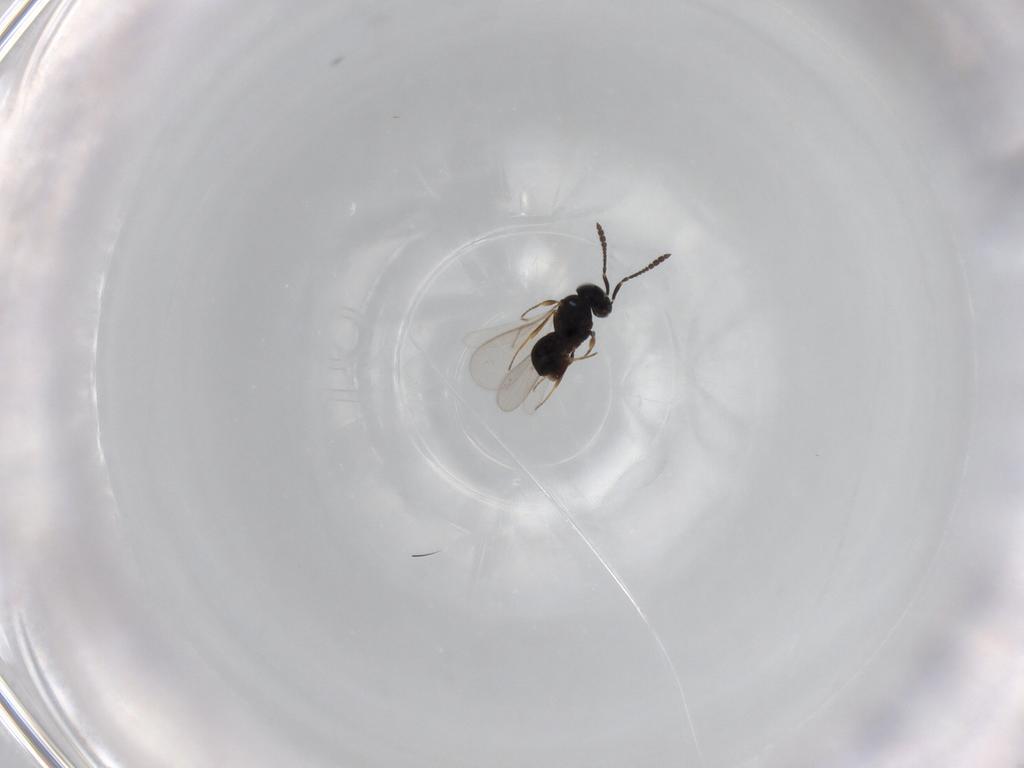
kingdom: Animalia
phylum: Arthropoda
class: Insecta
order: Hymenoptera
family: Scelionidae
